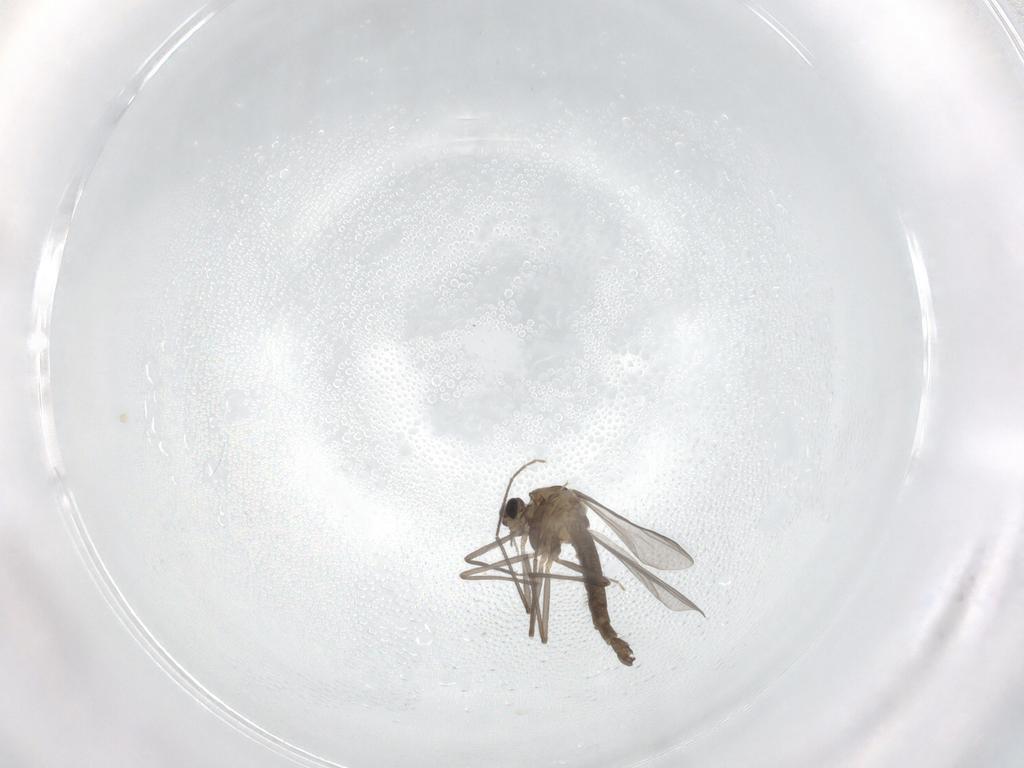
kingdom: Animalia
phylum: Arthropoda
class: Insecta
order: Diptera
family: Chironomidae
